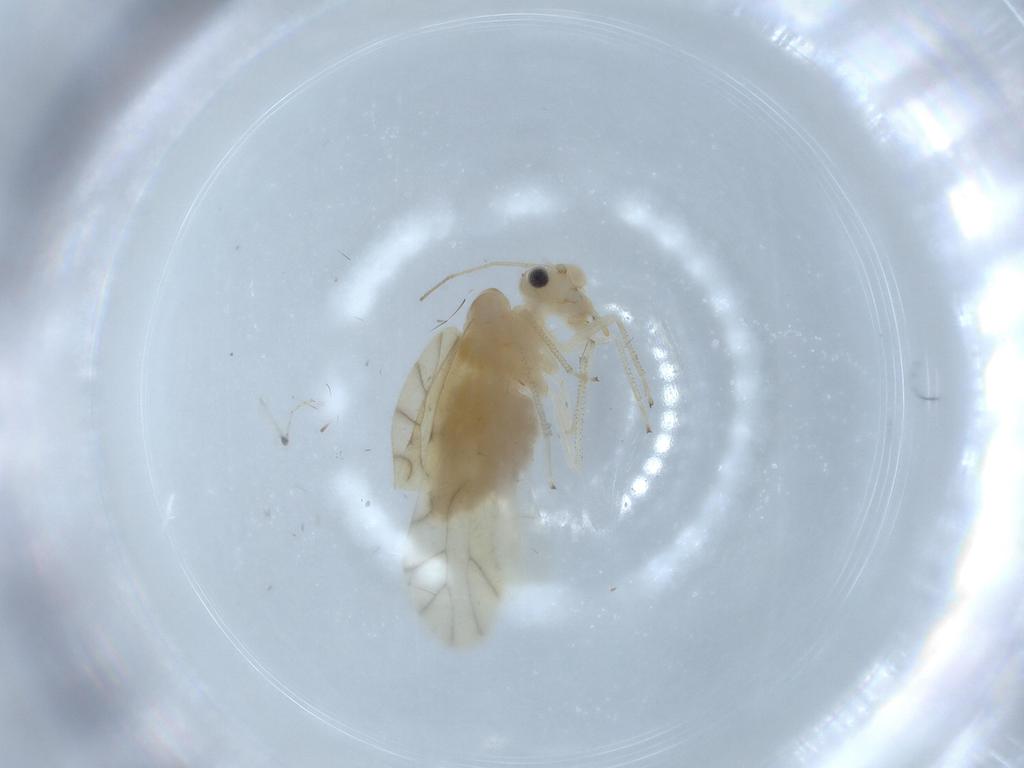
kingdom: Animalia
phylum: Arthropoda
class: Insecta
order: Psocodea
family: Caeciliusidae
